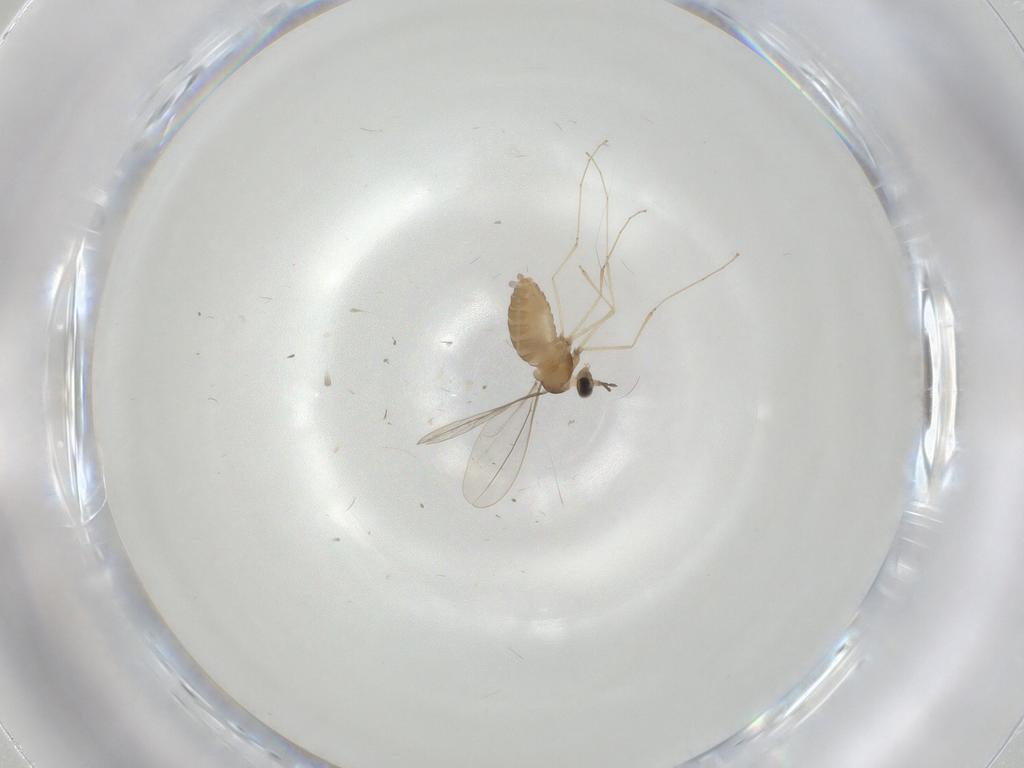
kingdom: Animalia
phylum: Arthropoda
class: Insecta
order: Diptera
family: Cecidomyiidae
